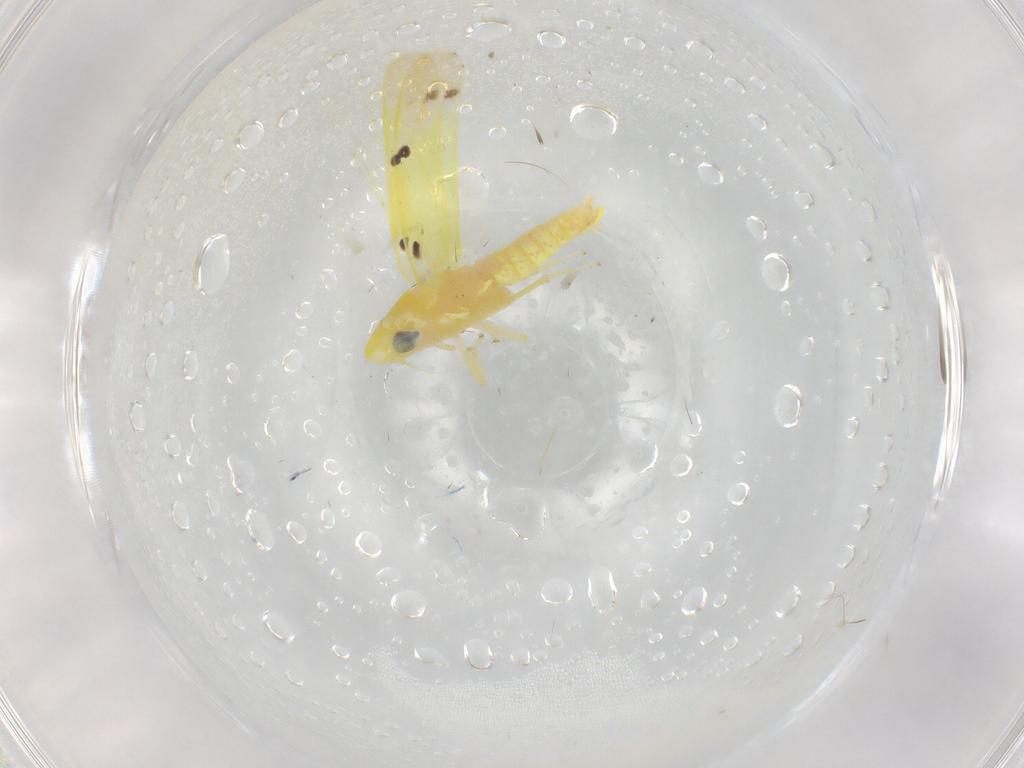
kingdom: Animalia
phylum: Arthropoda
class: Insecta
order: Hemiptera
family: Cicadellidae
